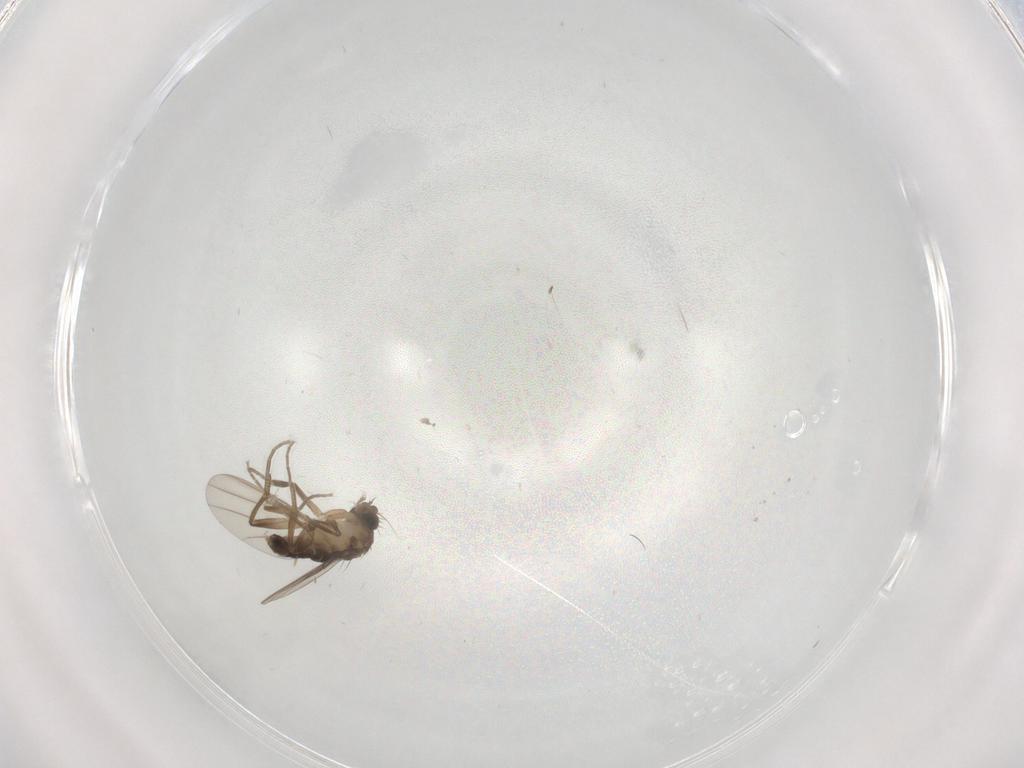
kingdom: Animalia
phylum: Arthropoda
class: Insecta
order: Diptera
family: Phoridae
